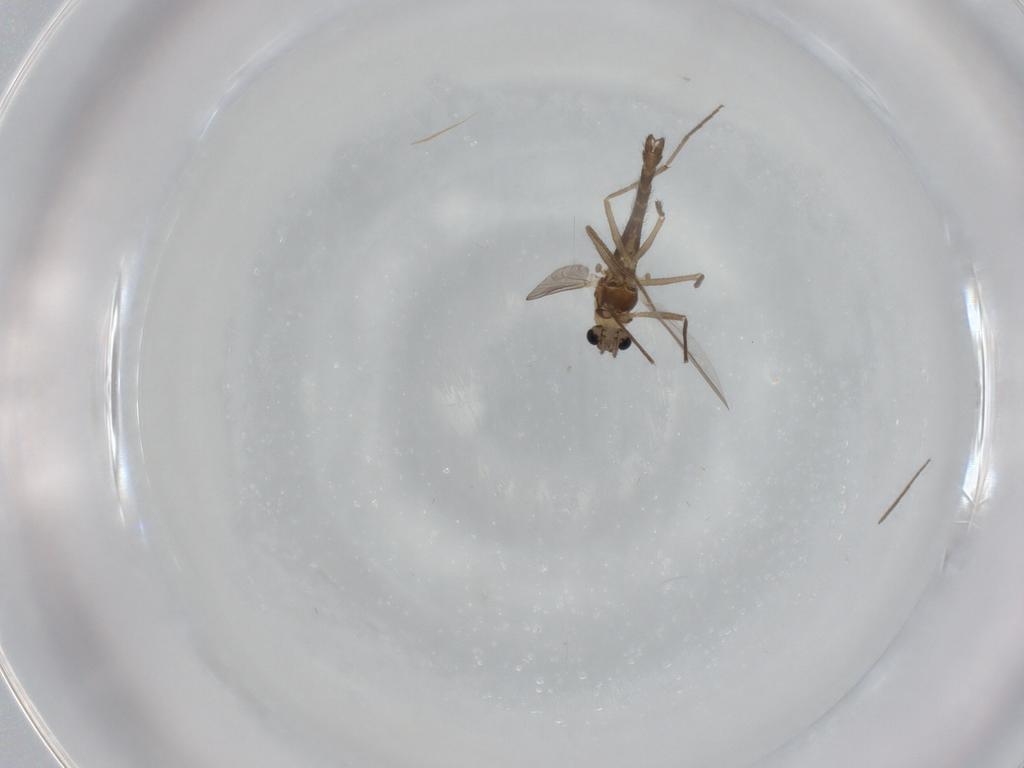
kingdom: Animalia
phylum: Arthropoda
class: Insecta
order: Diptera
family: Chironomidae
